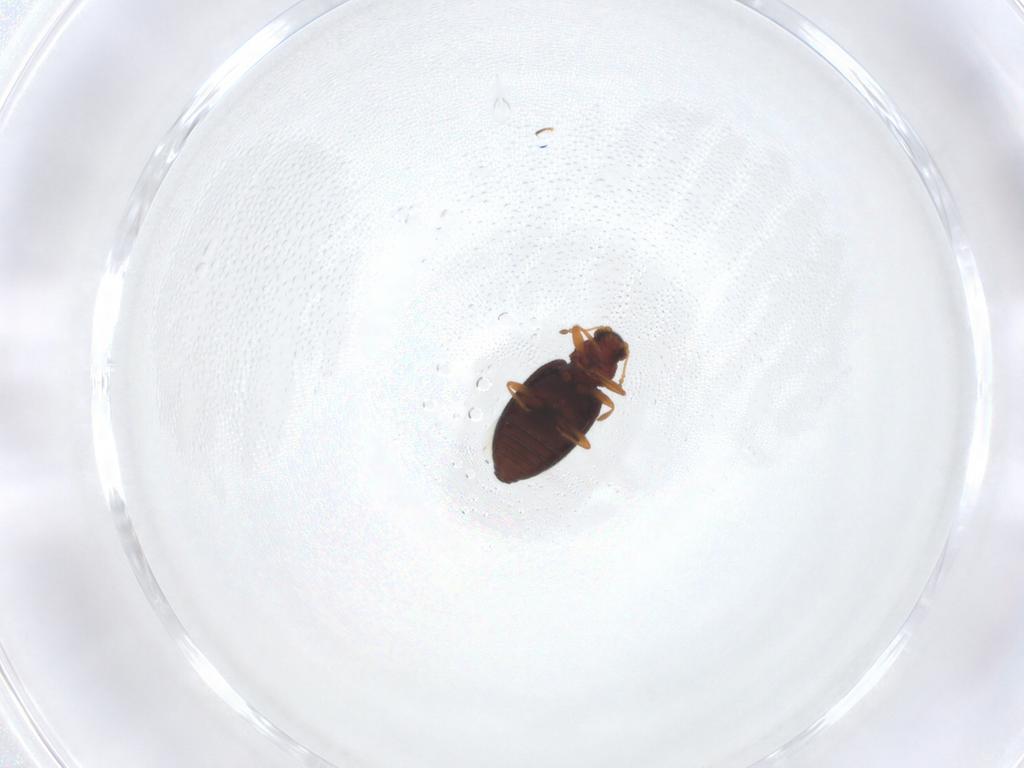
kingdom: Animalia
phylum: Arthropoda
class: Insecta
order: Coleoptera
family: Latridiidae
